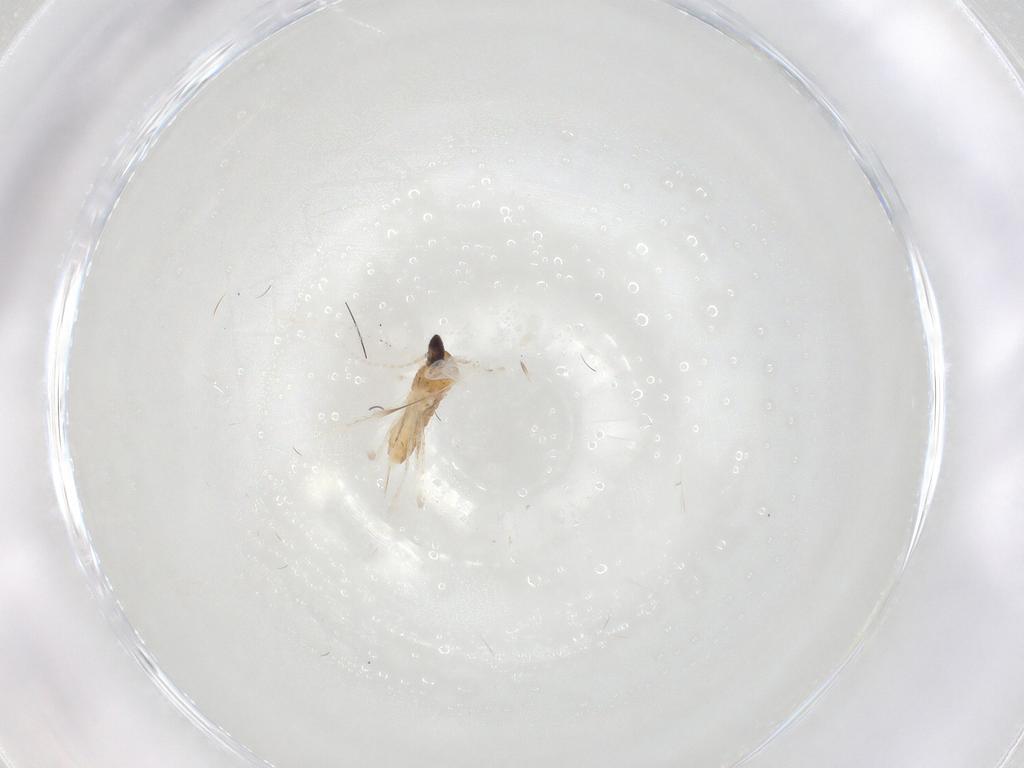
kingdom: Animalia
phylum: Arthropoda
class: Insecta
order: Diptera
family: Cecidomyiidae
